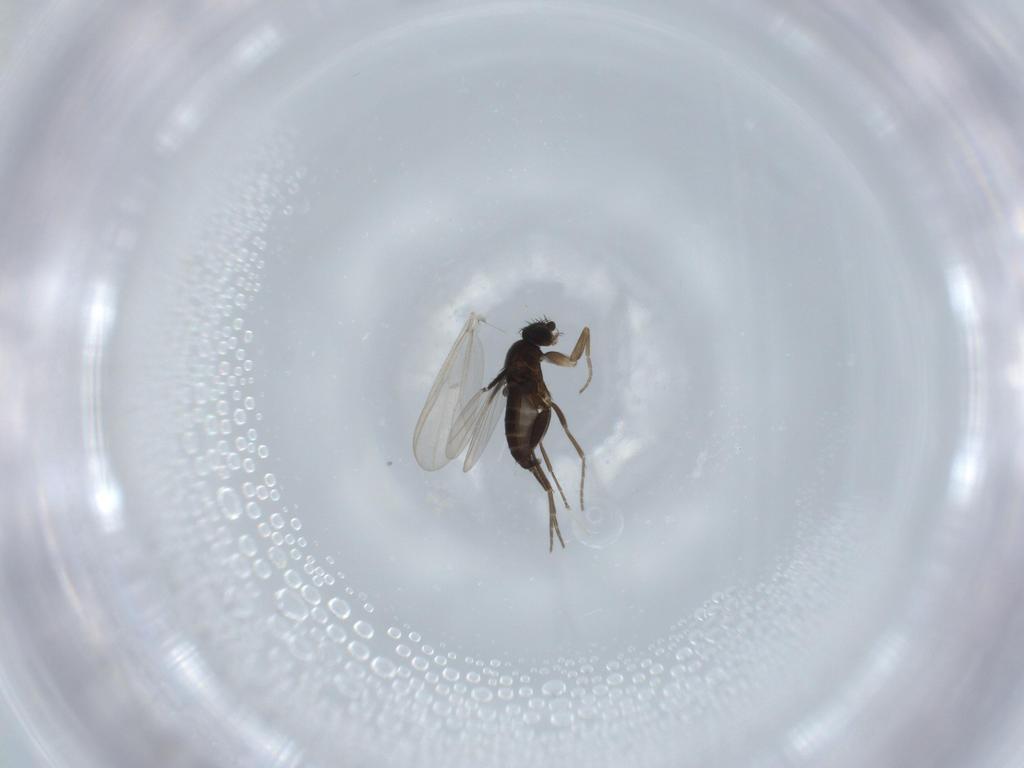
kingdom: Animalia
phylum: Arthropoda
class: Insecta
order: Diptera
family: Cecidomyiidae
